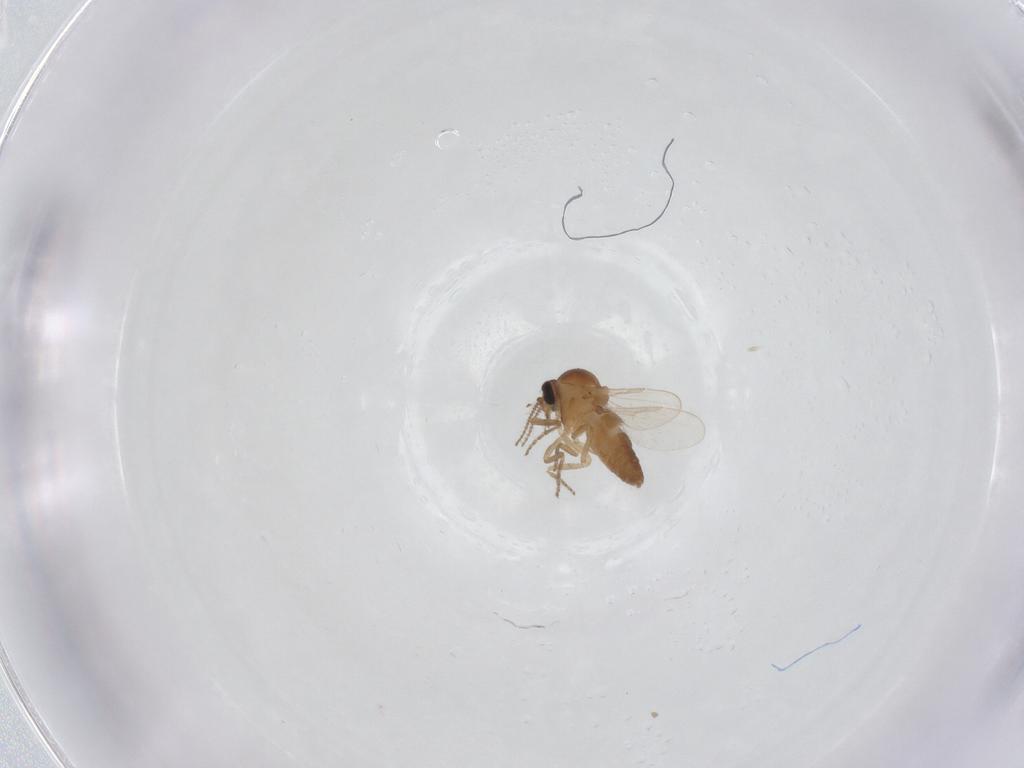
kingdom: Animalia
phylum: Arthropoda
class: Insecta
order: Diptera
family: Ceratopogonidae
